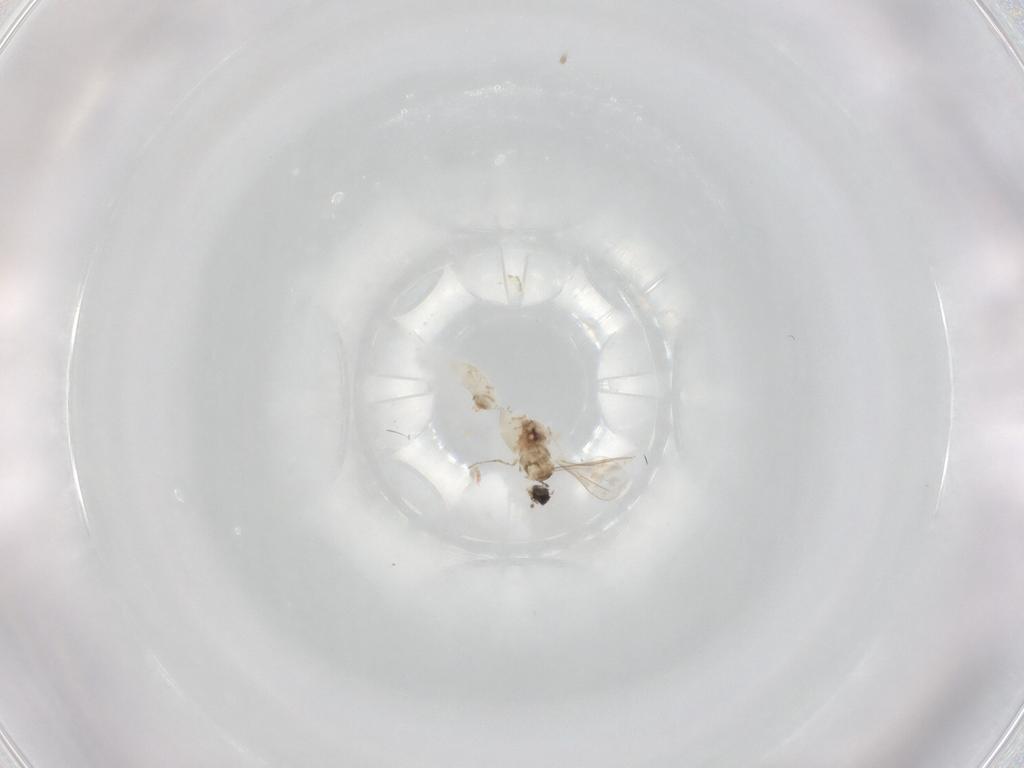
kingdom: Animalia
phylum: Arthropoda
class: Insecta
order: Diptera
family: Cecidomyiidae
